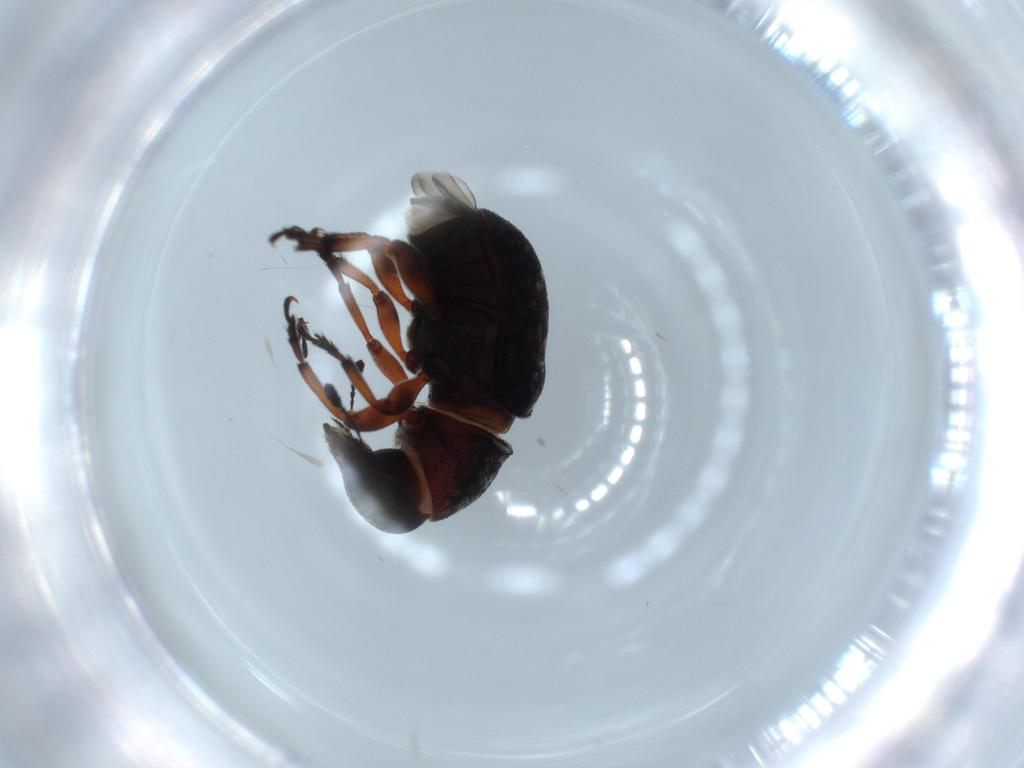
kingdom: Animalia
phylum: Arthropoda
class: Insecta
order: Coleoptera
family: Anthribidae
